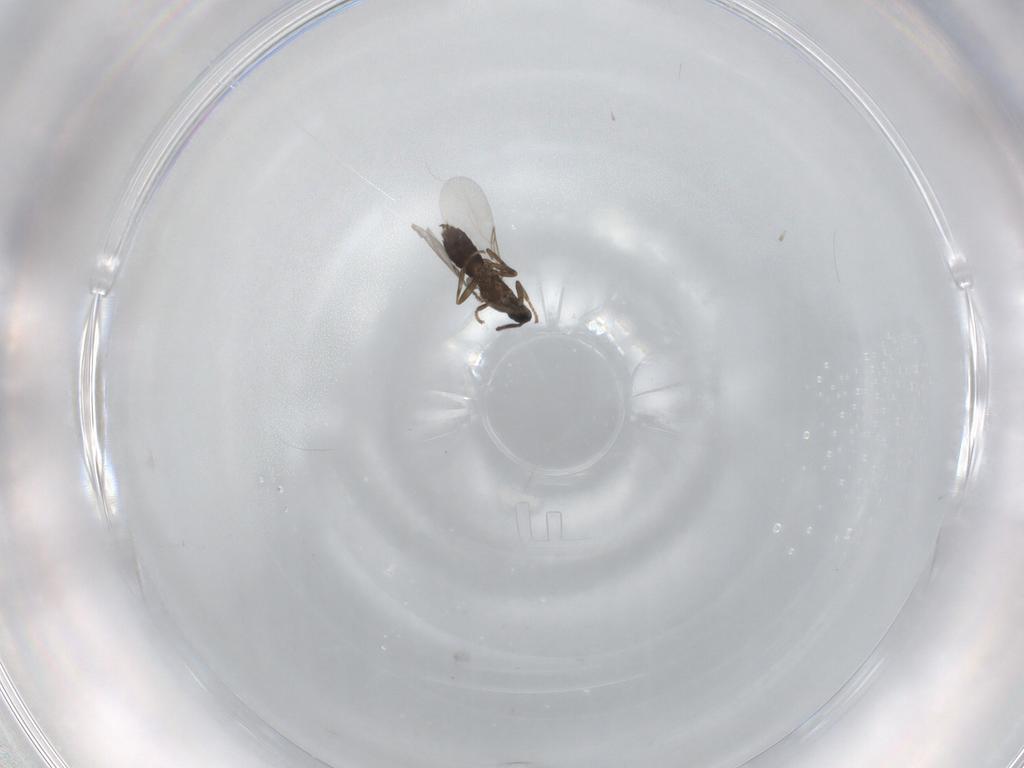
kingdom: Animalia
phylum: Arthropoda
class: Insecta
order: Diptera
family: Scatopsidae
